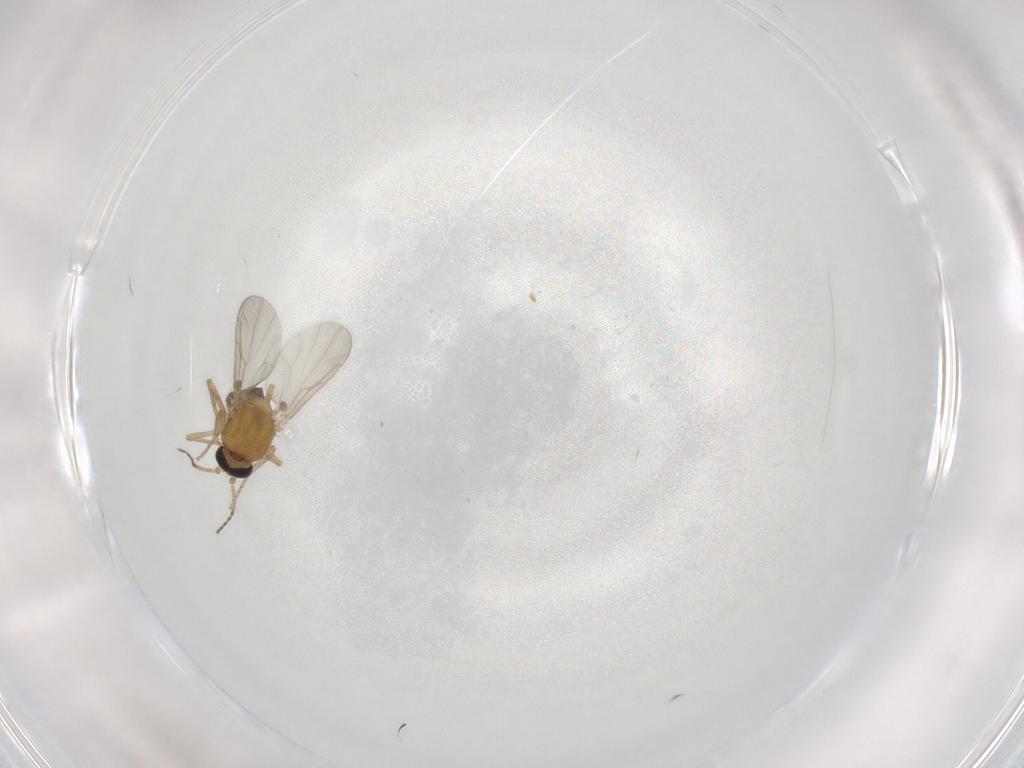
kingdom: Animalia
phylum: Arthropoda
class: Insecta
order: Diptera
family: Ceratopogonidae
